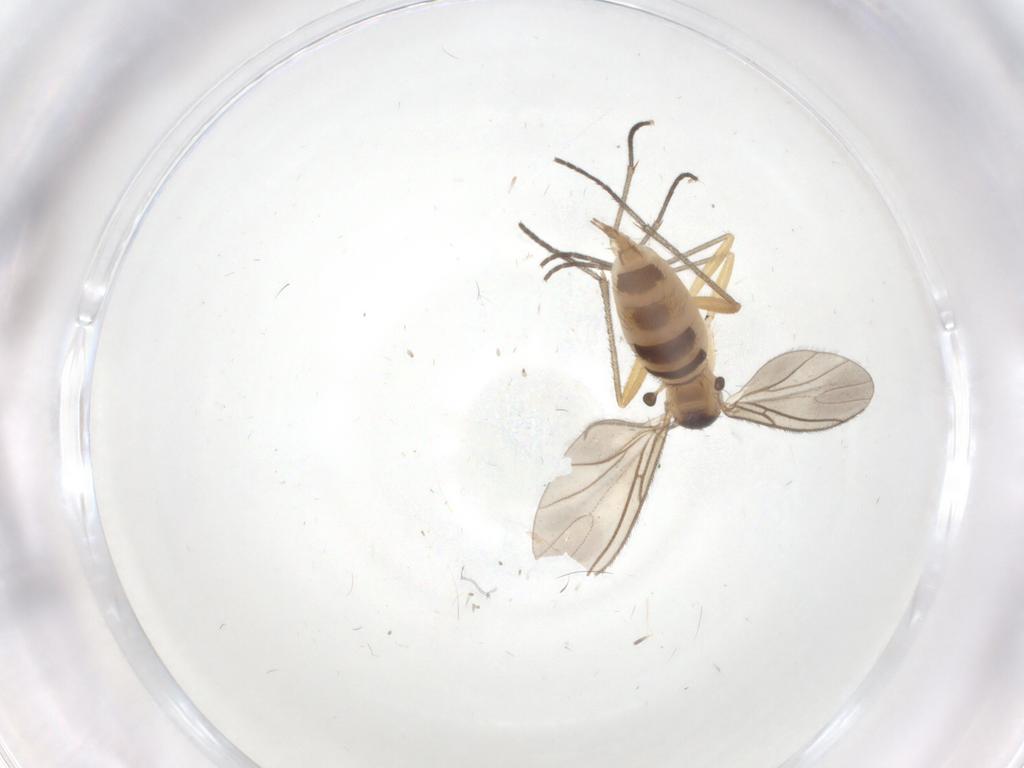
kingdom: Animalia
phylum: Arthropoda
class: Insecta
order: Diptera
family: Sciaridae
